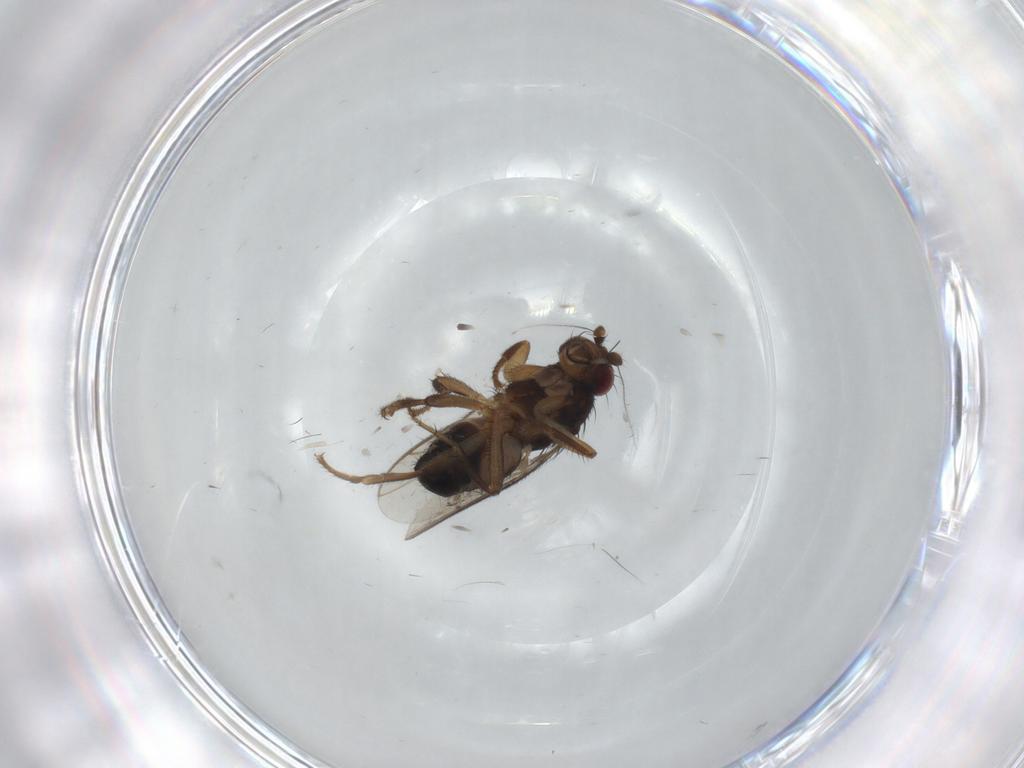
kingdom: Animalia
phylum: Arthropoda
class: Insecta
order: Diptera
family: Sphaeroceridae
